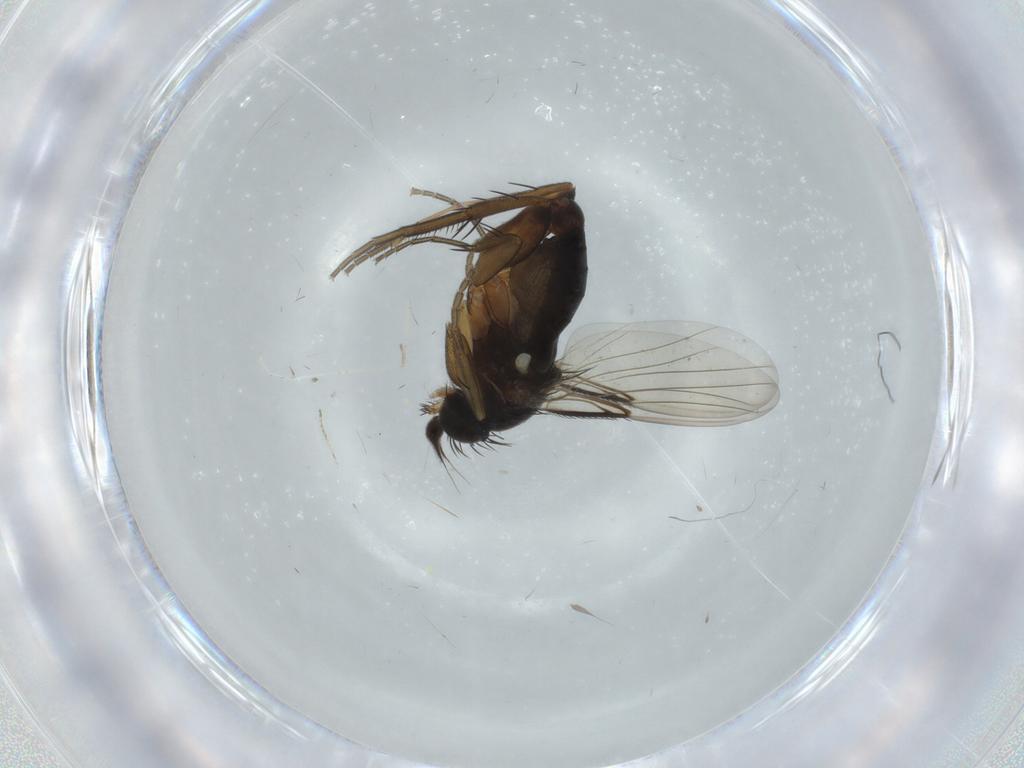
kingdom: Animalia
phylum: Arthropoda
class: Insecta
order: Diptera
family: Phoridae
